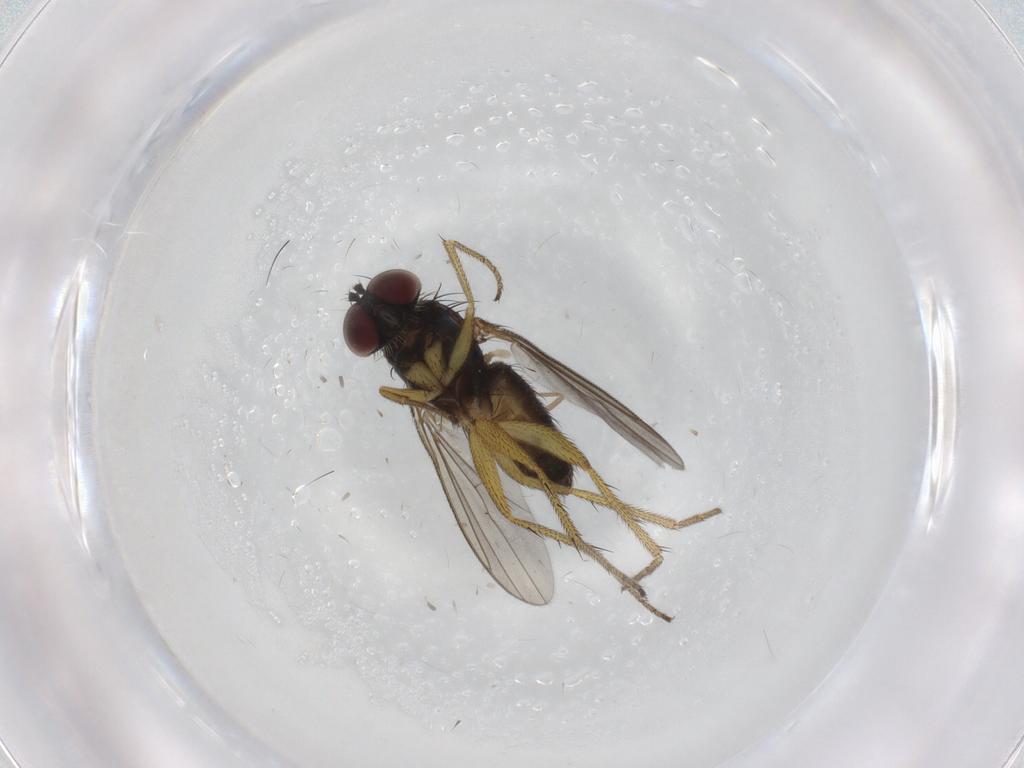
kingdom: Animalia
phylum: Arthropoda
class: Insecta
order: Diptera
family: Dolichopodidae
